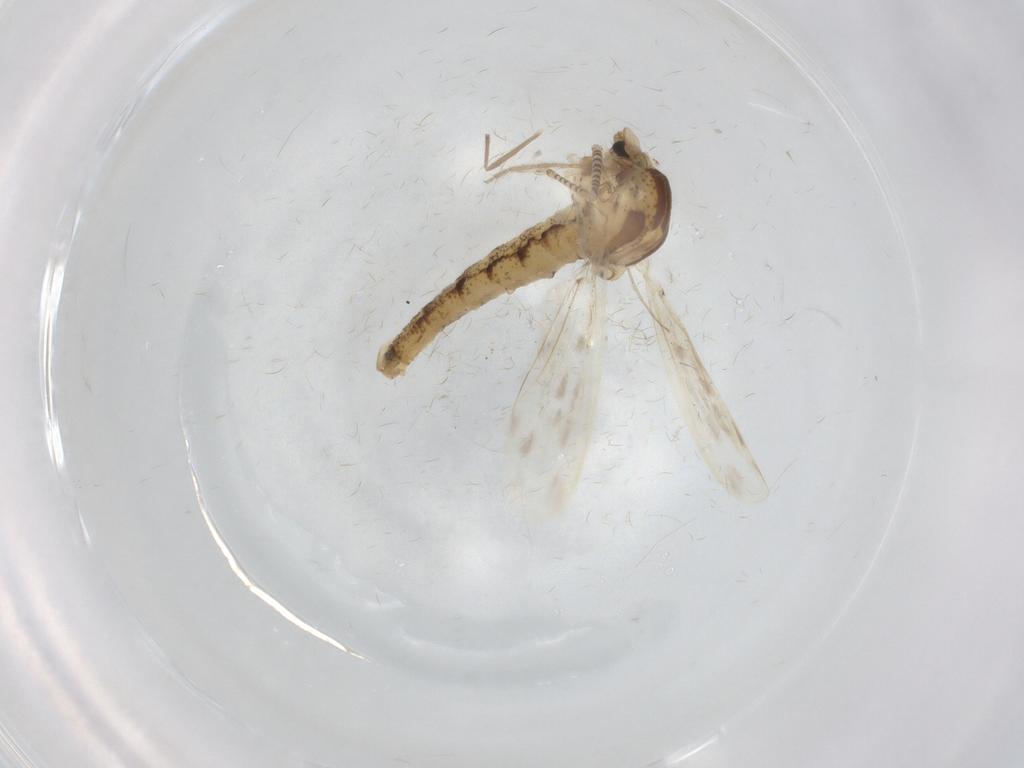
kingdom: Animalia
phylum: Arthropoda
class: Insecta
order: Diptera
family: Chaoboridae
